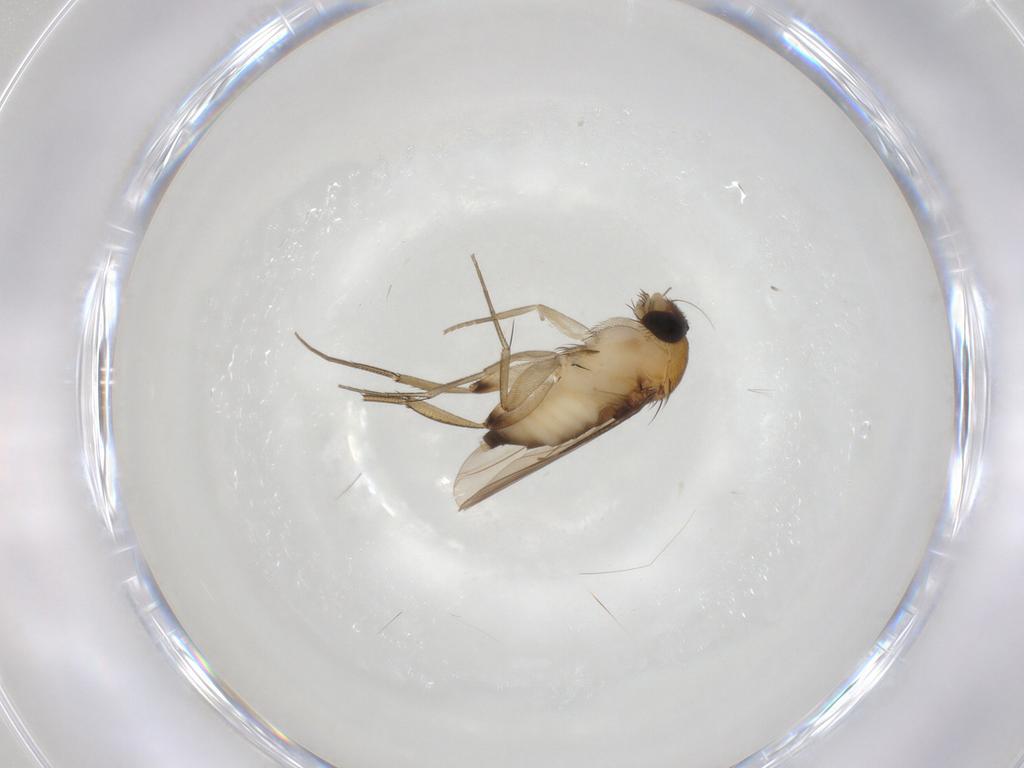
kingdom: Animalia
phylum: Arthropoda
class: Insecta
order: Diptera
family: Phoridae
